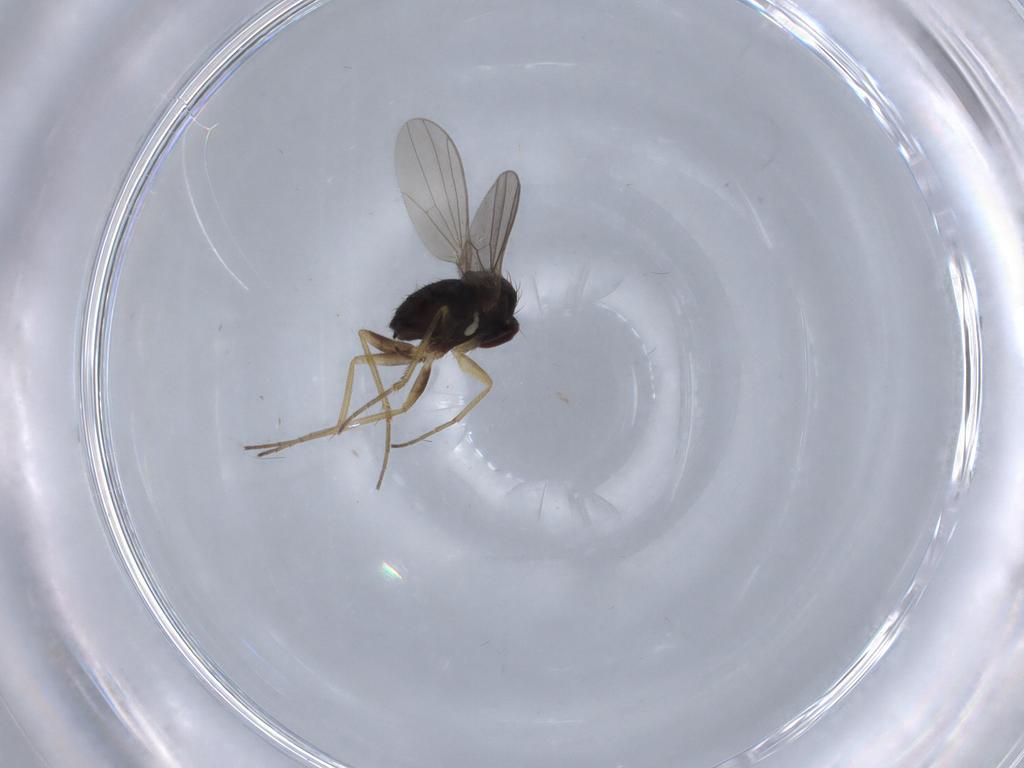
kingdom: Animalia
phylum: Arthropoda
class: Insecta
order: Diptera
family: Dolichopodidae
